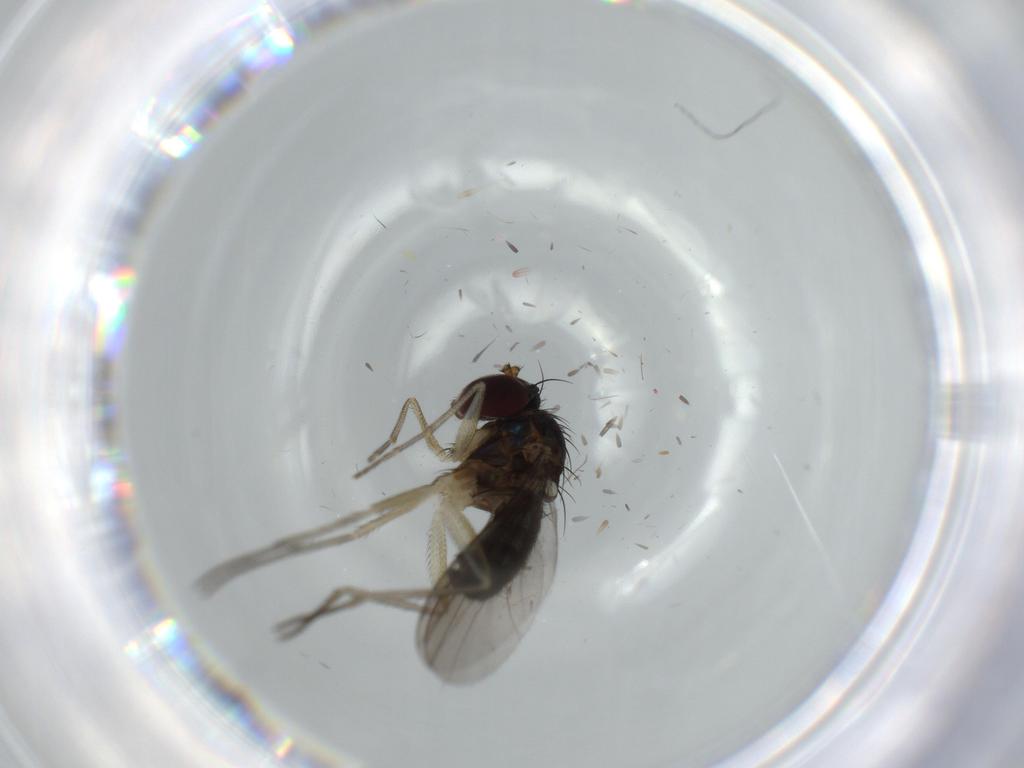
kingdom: Animalia
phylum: Arthropoda
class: Insecta
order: Diptera
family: Dolichopodidae
